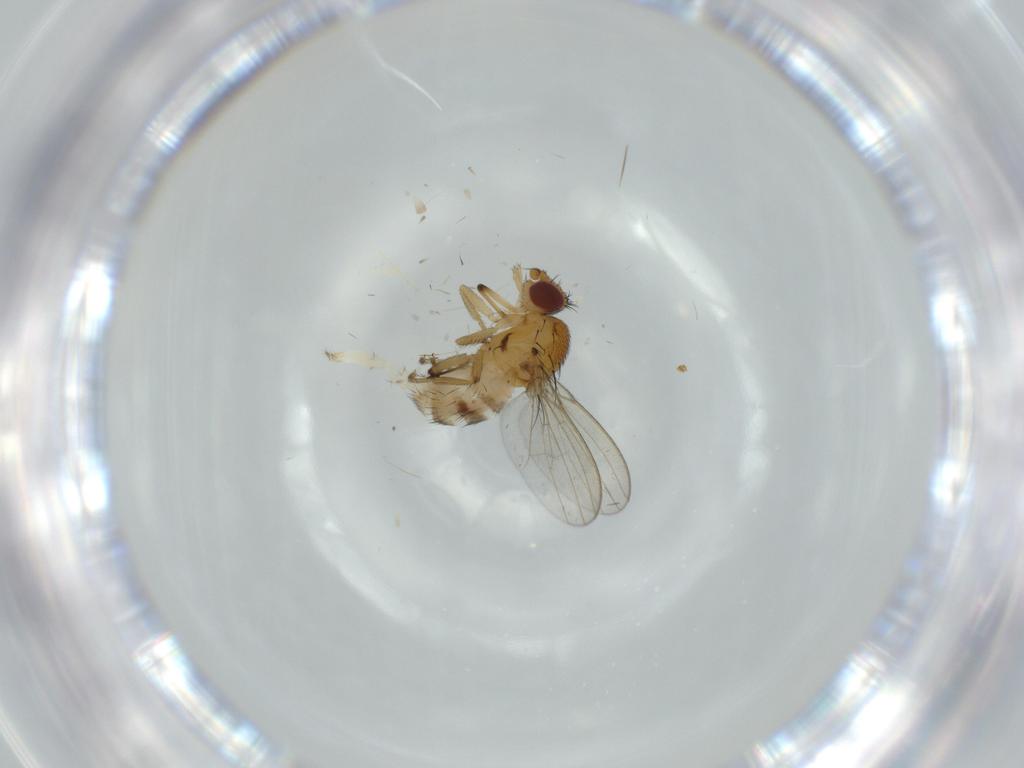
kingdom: Animalia
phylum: Arthropoda
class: Insecta
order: Diptera
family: Milichiidae
